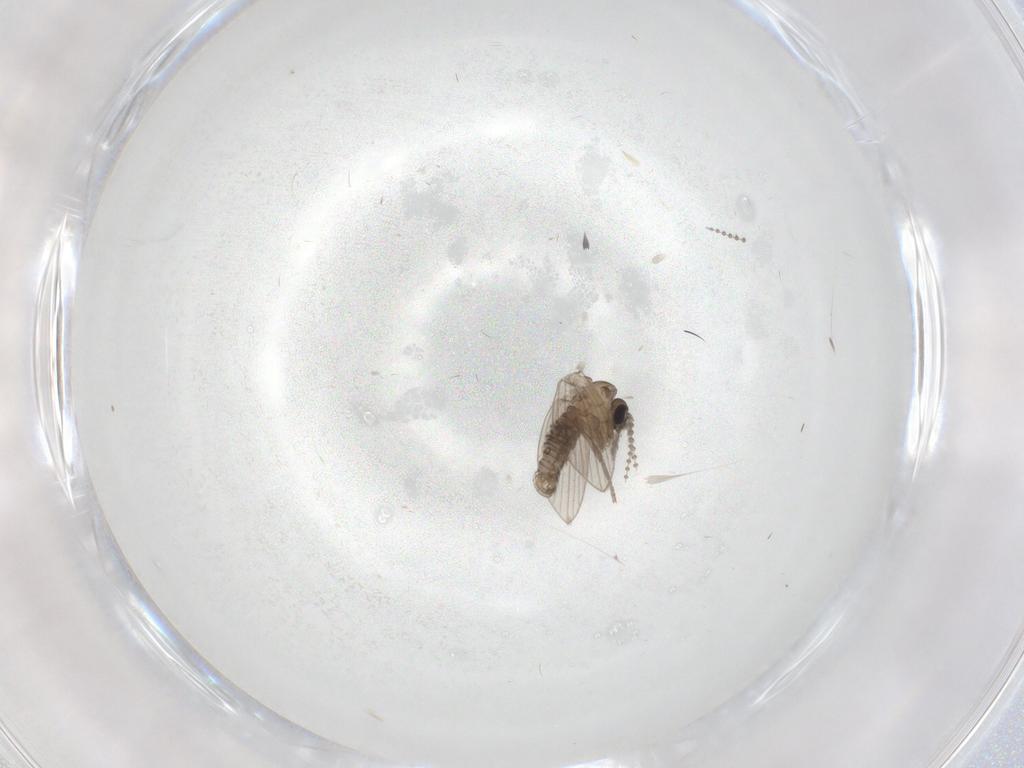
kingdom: Animalia
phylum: Arthropoda
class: Insecta
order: Diptera
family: Psychodidae
